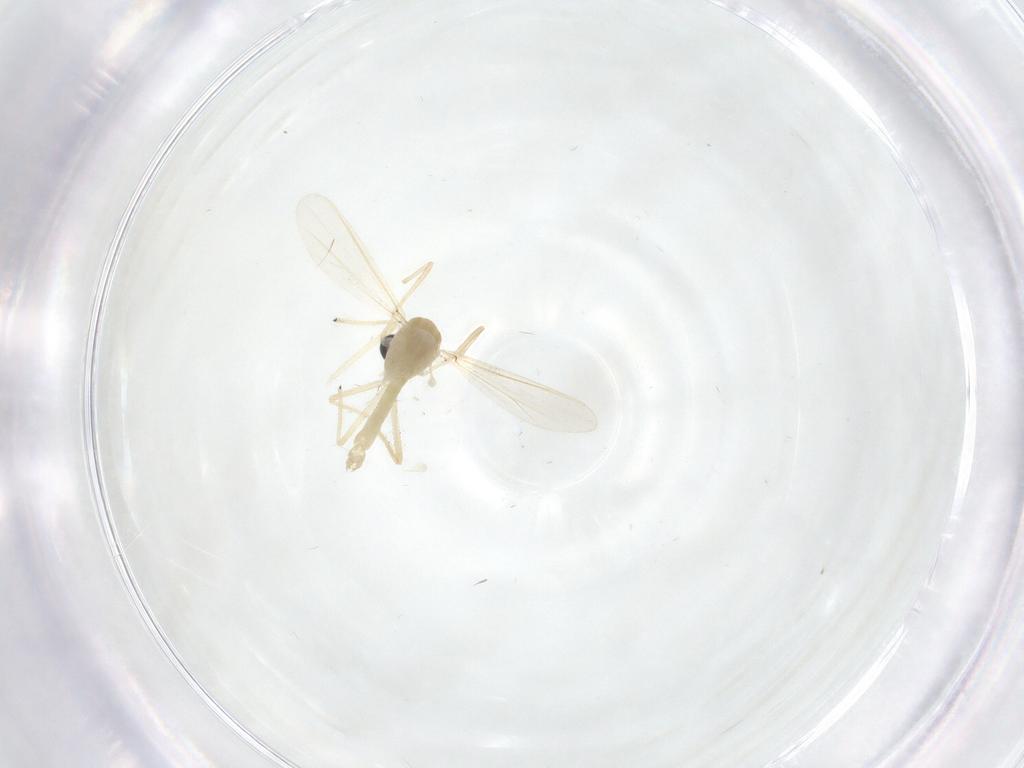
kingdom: Animalia
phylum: Arthropoda
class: Insecta
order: Diptera
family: Chironomidae
